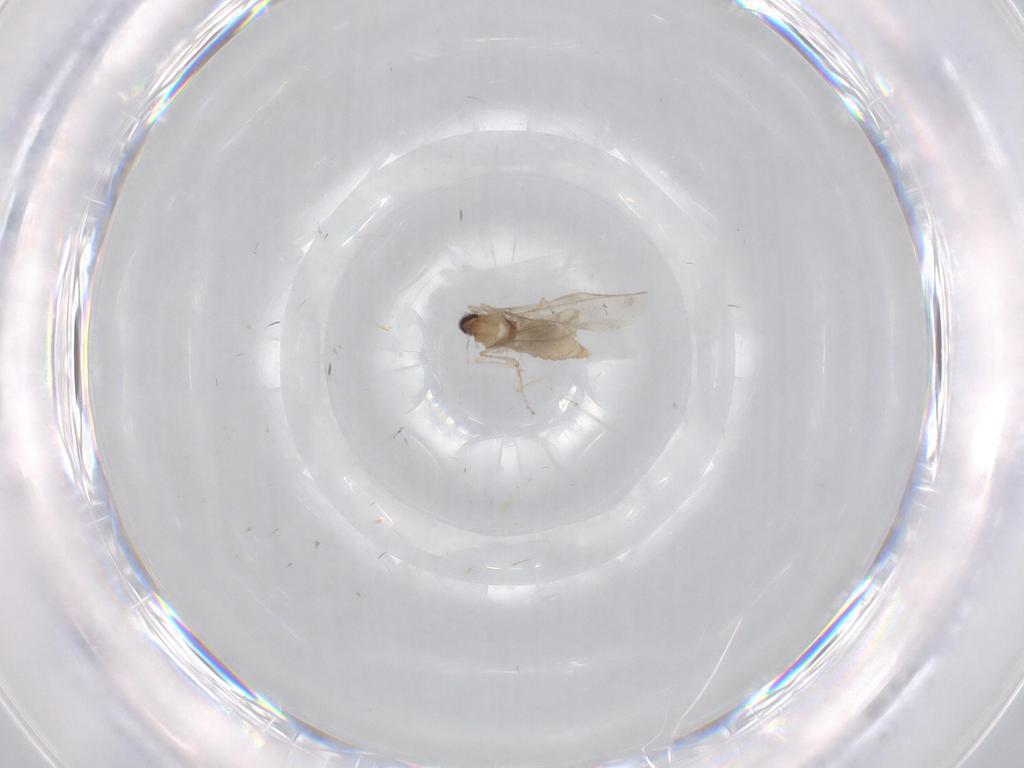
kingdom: Animalia
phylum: Arthropoda
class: Insecta
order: Diptera
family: Cecidomyiidae
